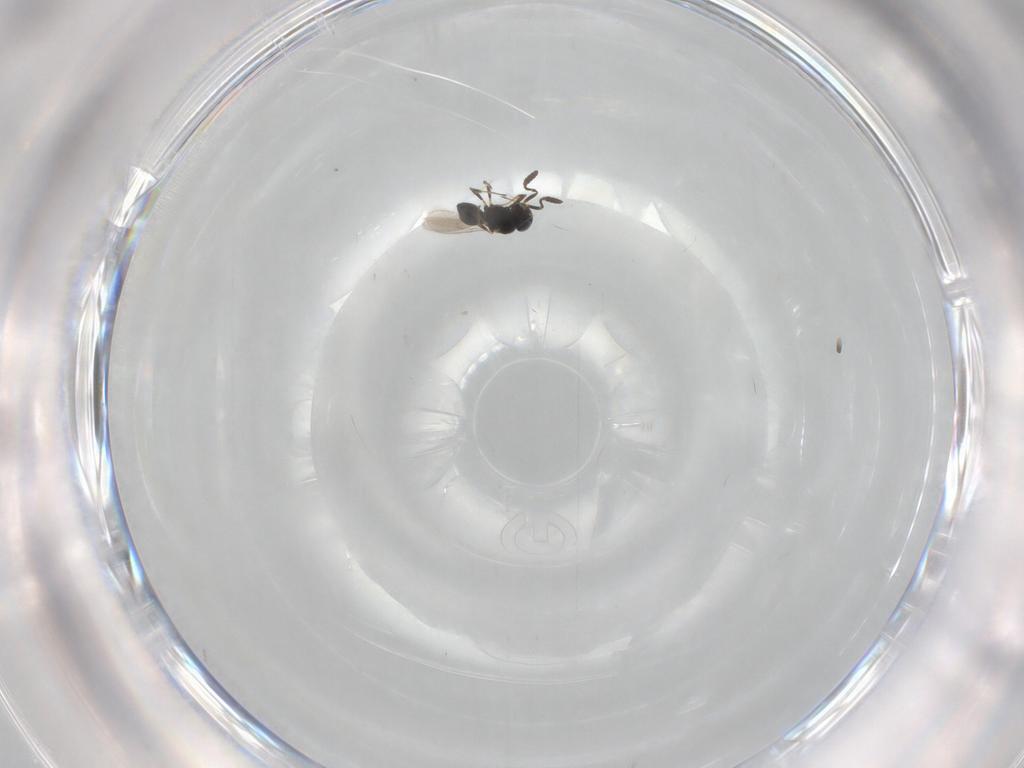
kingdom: Animalia
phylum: Arthropoda
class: Insecta
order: Hymenoptera
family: Scelionidae
